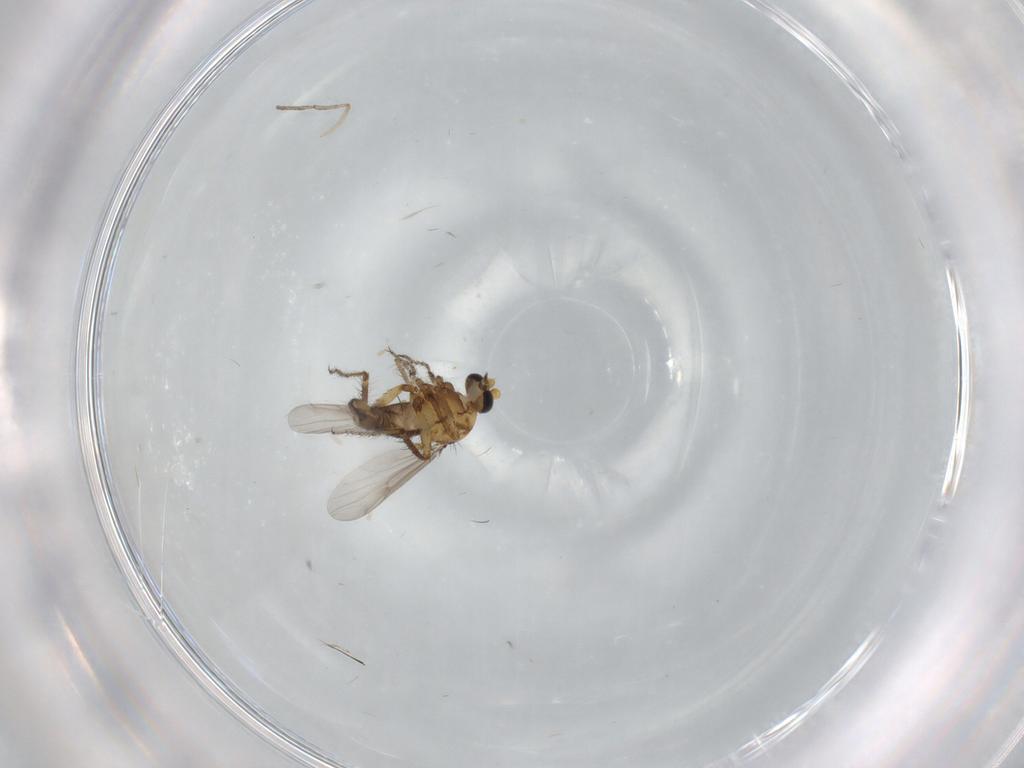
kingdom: Animalia
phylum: Arthropoda
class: Insecta
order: Diptera
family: Ceratopogonidae
